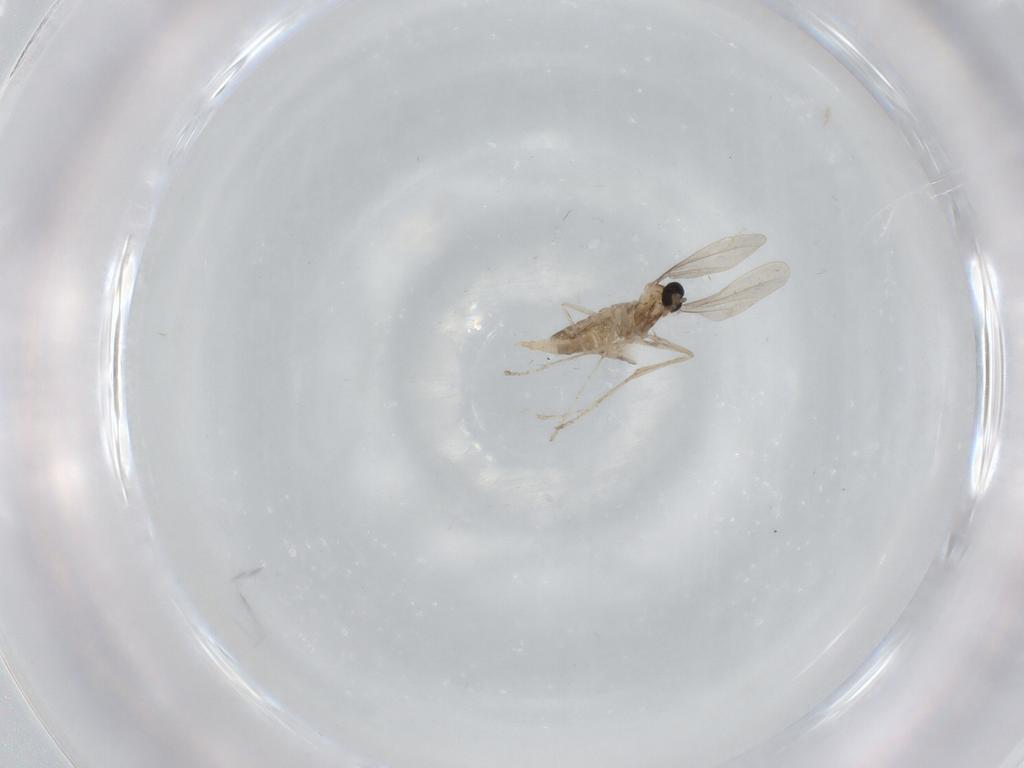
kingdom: Animalia
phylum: Arthropoda
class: Insecta
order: Diptera
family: Cecidomyiidae
